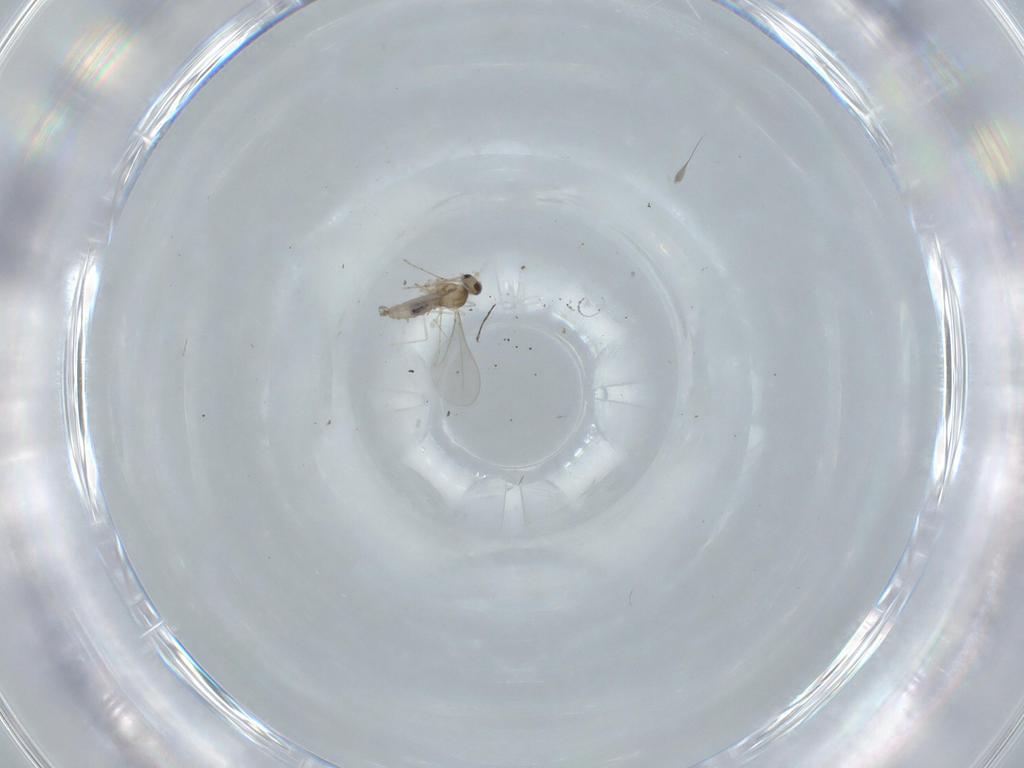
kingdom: Animalia
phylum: Arthropoda
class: Insecta
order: Diptera
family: Cecidomyiidae
